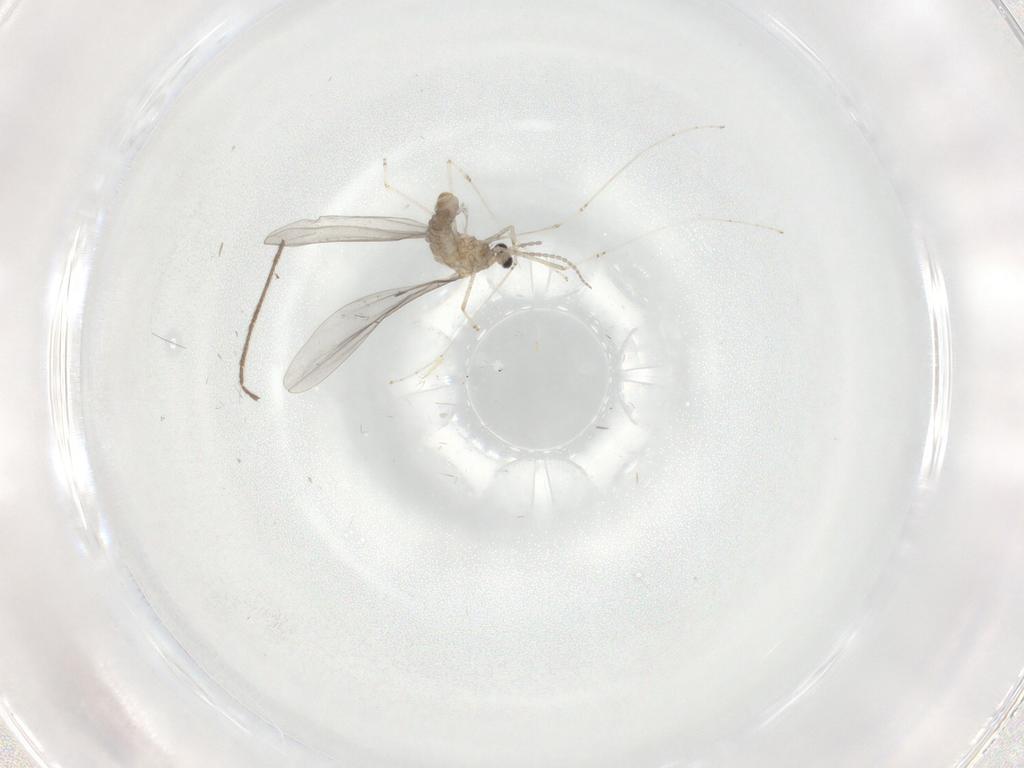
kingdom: Animalia
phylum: Arthropoda
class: Insecta
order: Diptera
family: Cecidomyiidae
